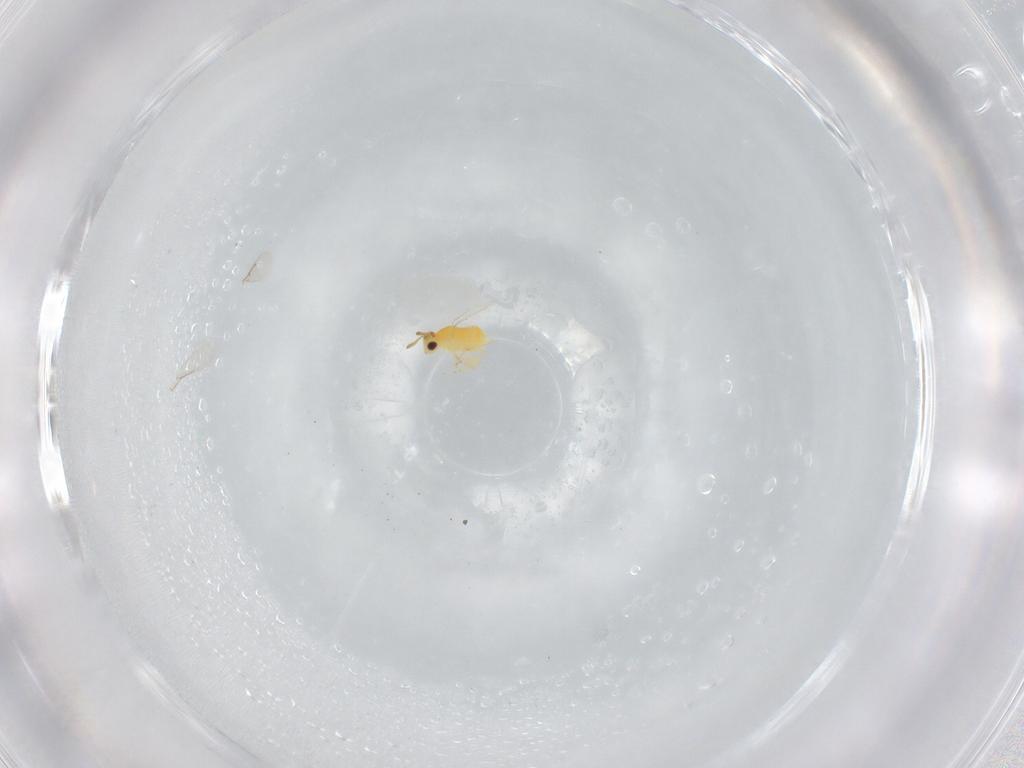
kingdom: Animalia
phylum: Arthropoda
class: Insecta
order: Hymenoptera
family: Aphelinidae
